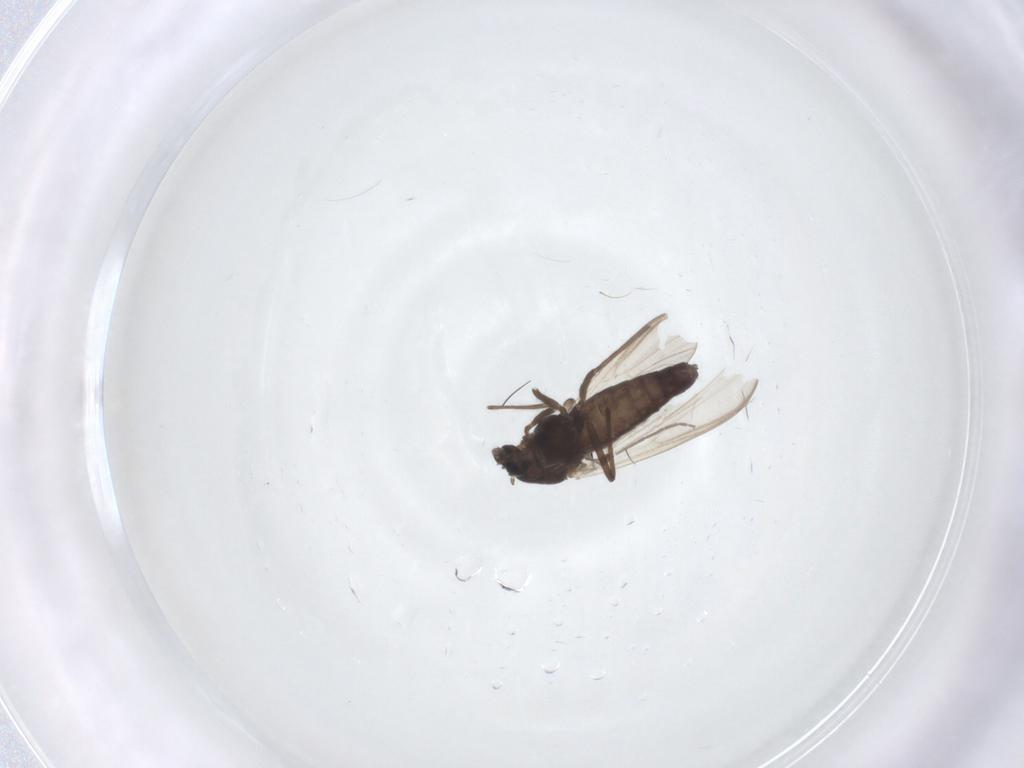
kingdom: Animalia
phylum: Arthropoda
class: Insecta
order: Diptera
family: Chironomidae
